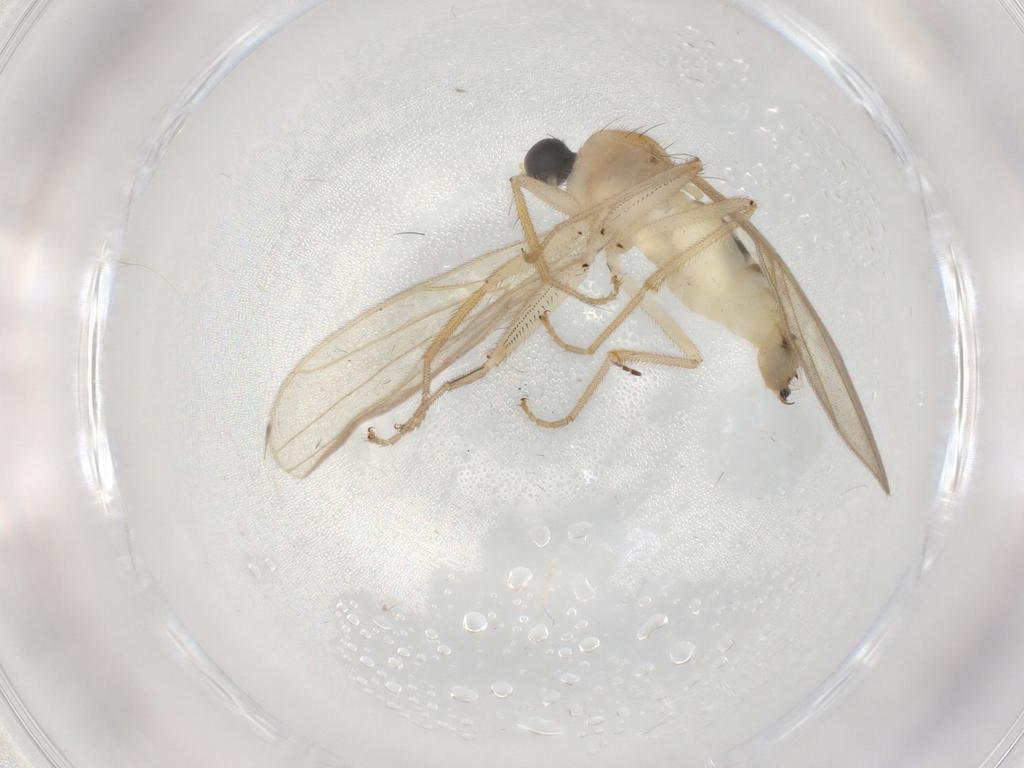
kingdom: Animalia
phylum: Arthropoda
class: Insecta
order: Diptera
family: Hybotidae
